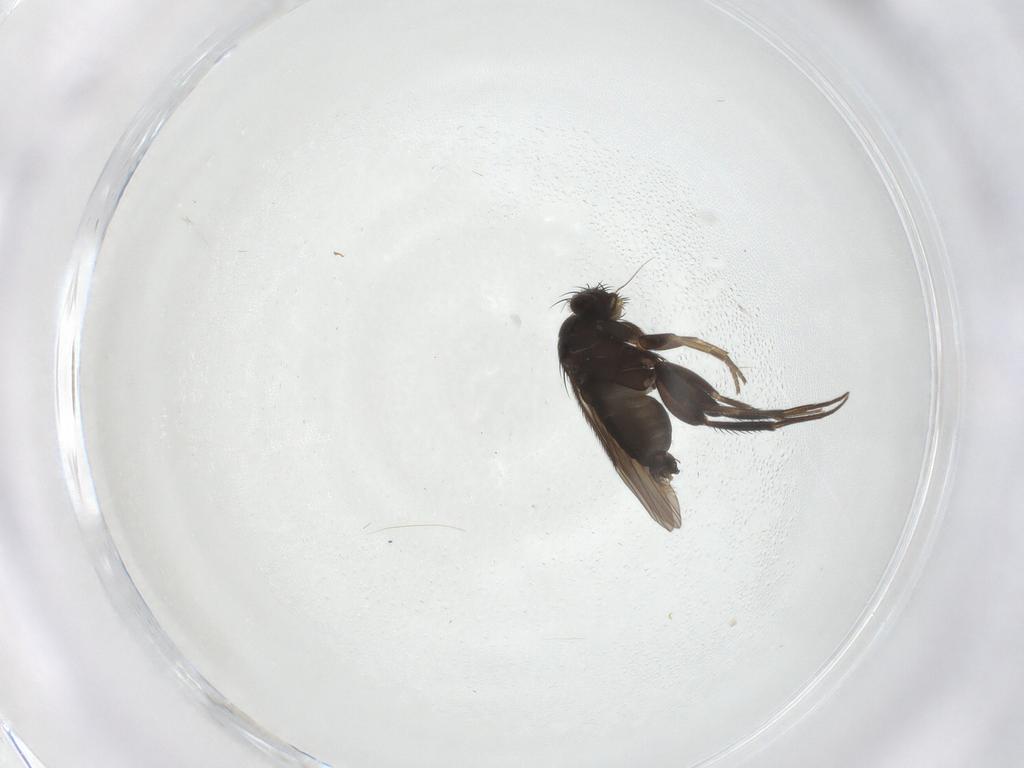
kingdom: Animalia
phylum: Arthropoda
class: Insecta
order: Diptera
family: Phoridae
